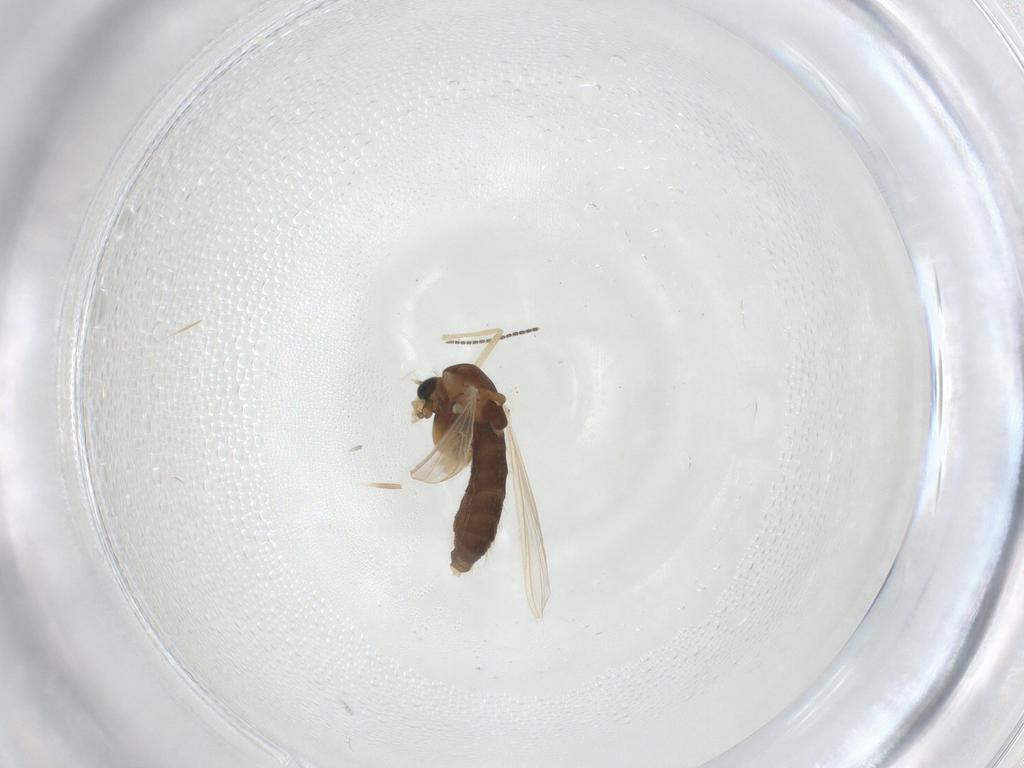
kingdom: Animalia
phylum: Arthropoda
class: Insecta
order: Diptera
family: Chironomidae
